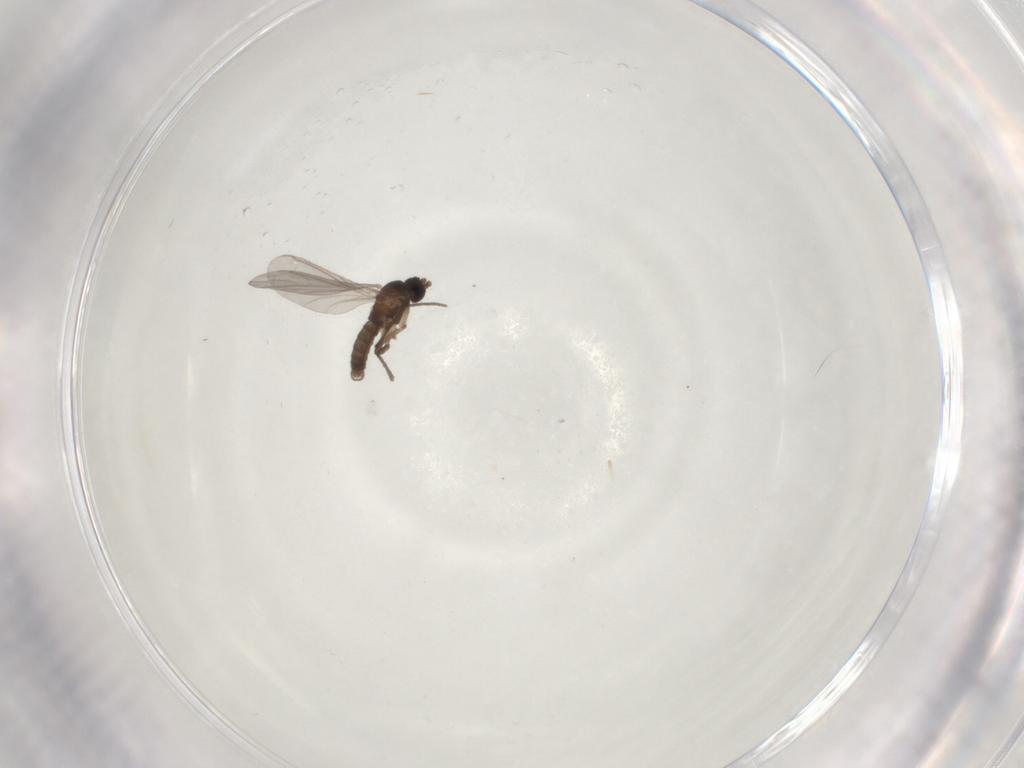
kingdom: Animalia
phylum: Arthropoda
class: Insecta
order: Diptera
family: Sciaridae
